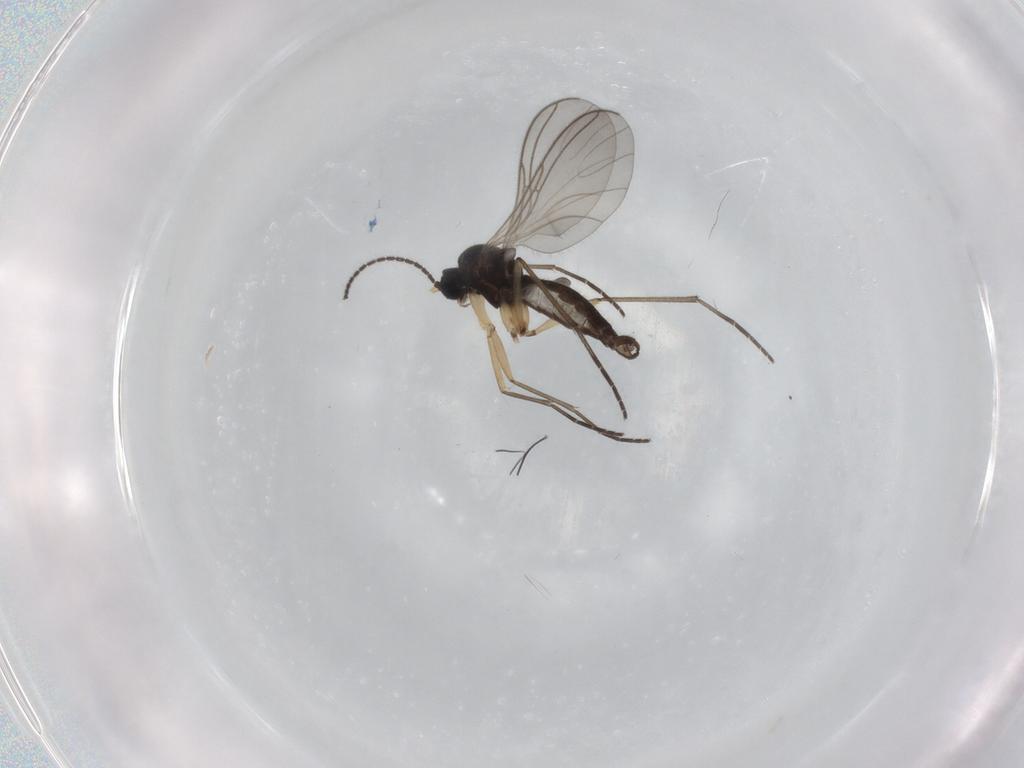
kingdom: Animalia
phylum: Arthropoda
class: Insecta
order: Diptera
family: Sciaridae
